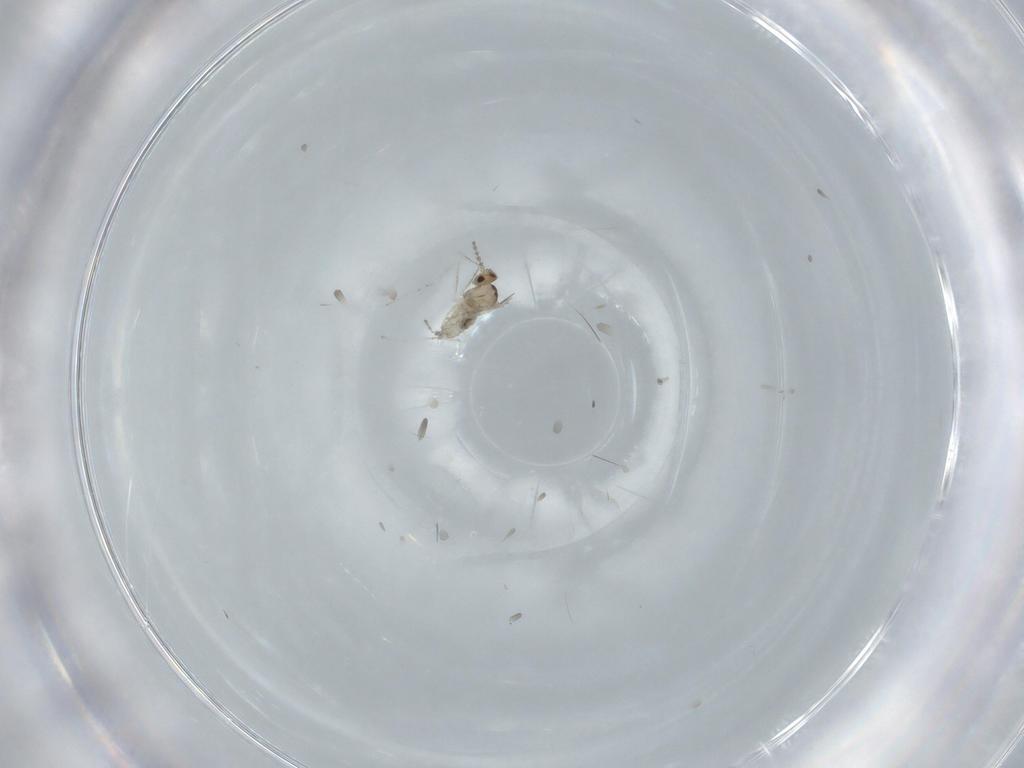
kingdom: Animalia
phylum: Arthropoda
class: Insecta
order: Diptera
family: Cecidomyiidae
